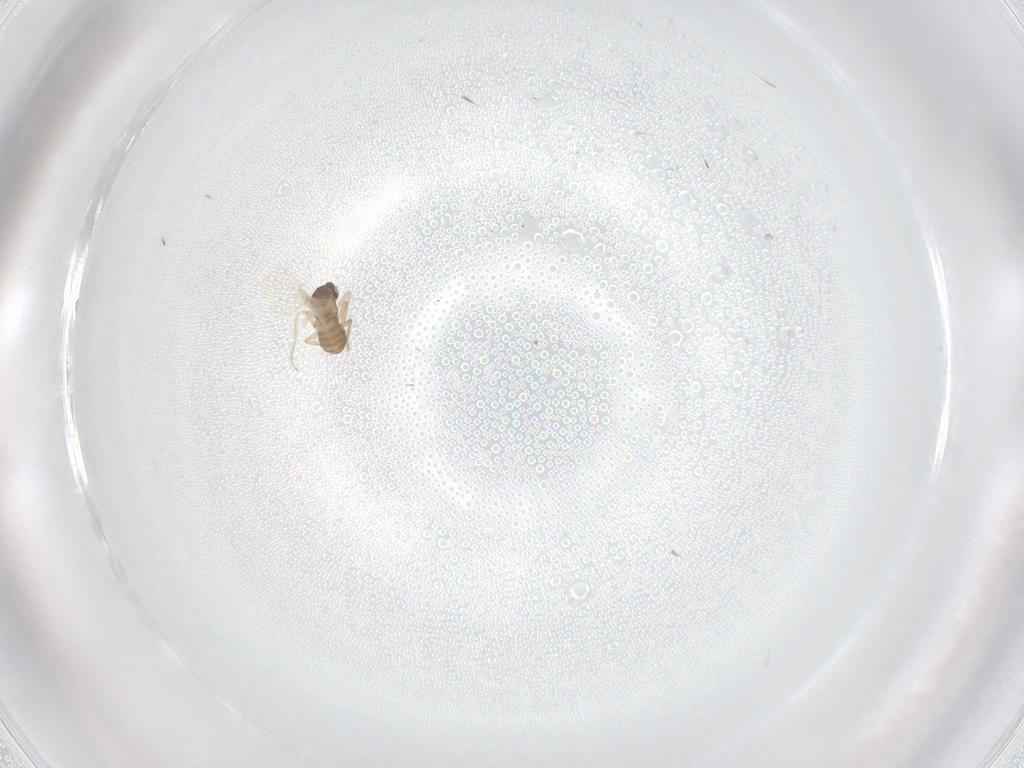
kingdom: Animalia
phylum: Arthropoda
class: Insecta
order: Diptera
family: Cecidomyiidae
